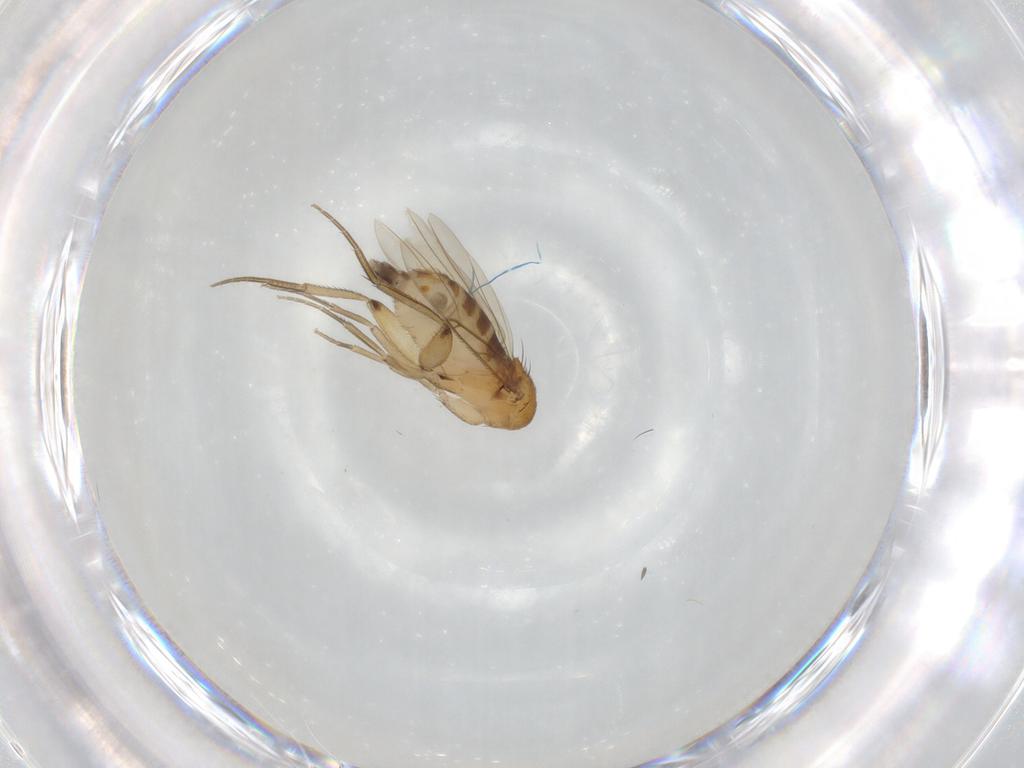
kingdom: Animalia
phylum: Arthropoda
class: Insecta
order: Diptera
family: Phoridae
